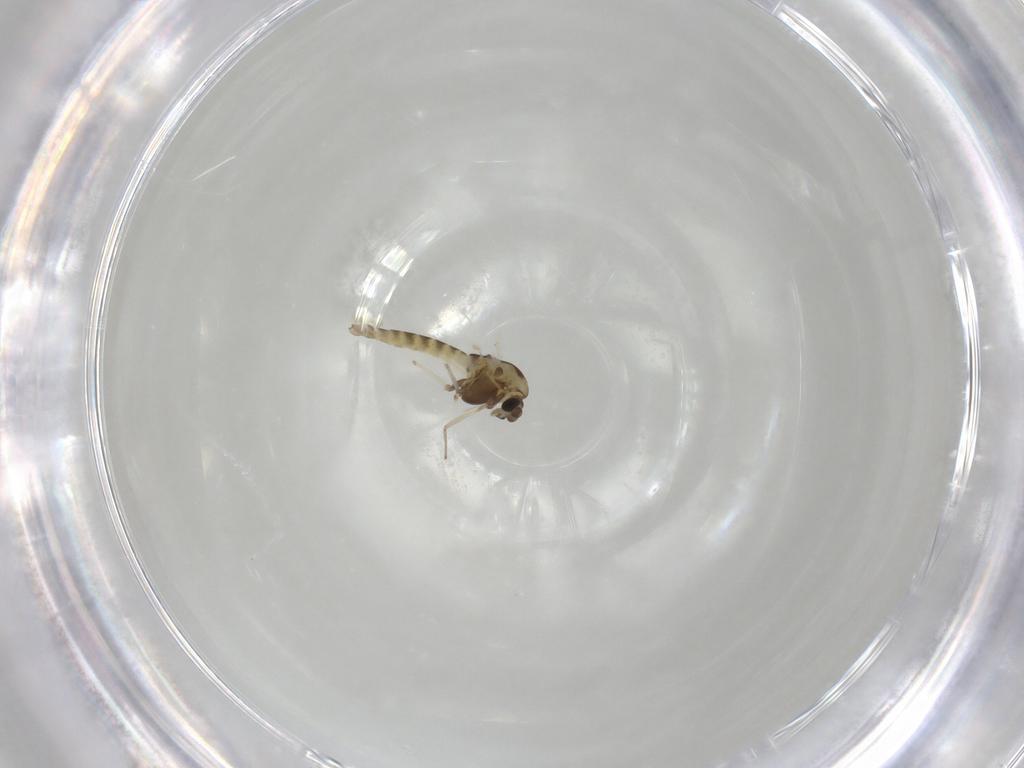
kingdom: Animalia
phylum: Arthropoda
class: Insecta
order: Diptera
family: Chironomidae
